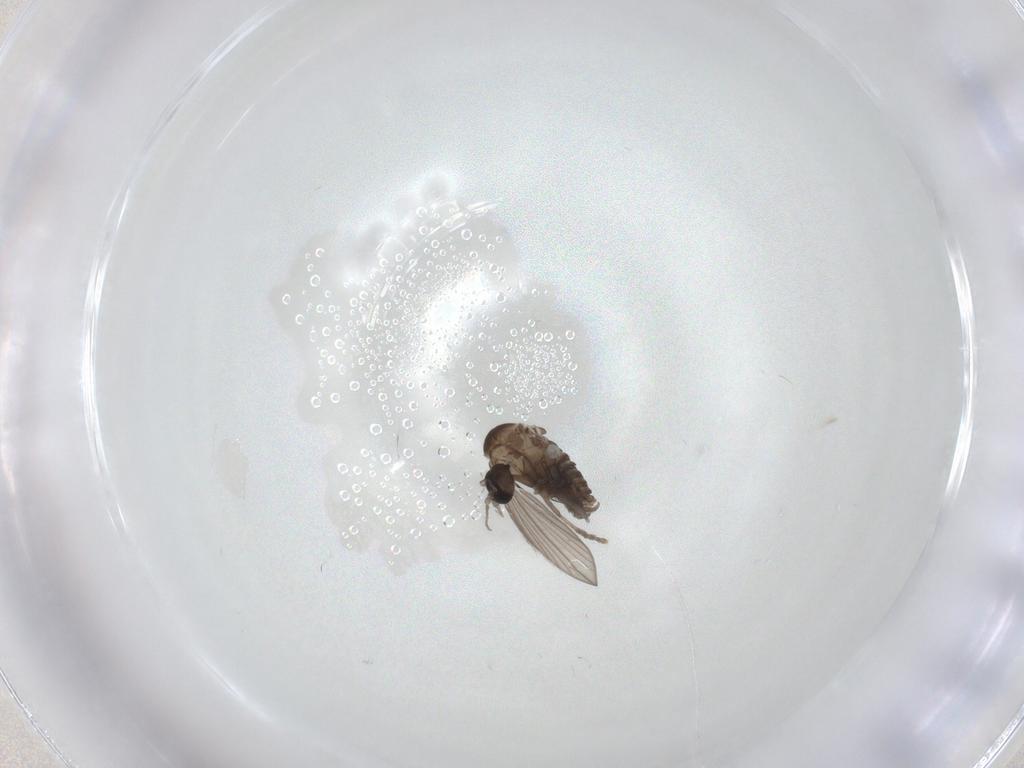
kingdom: Animalia
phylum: Arthropoda
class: Insecta
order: Diptera
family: Psychodidae
